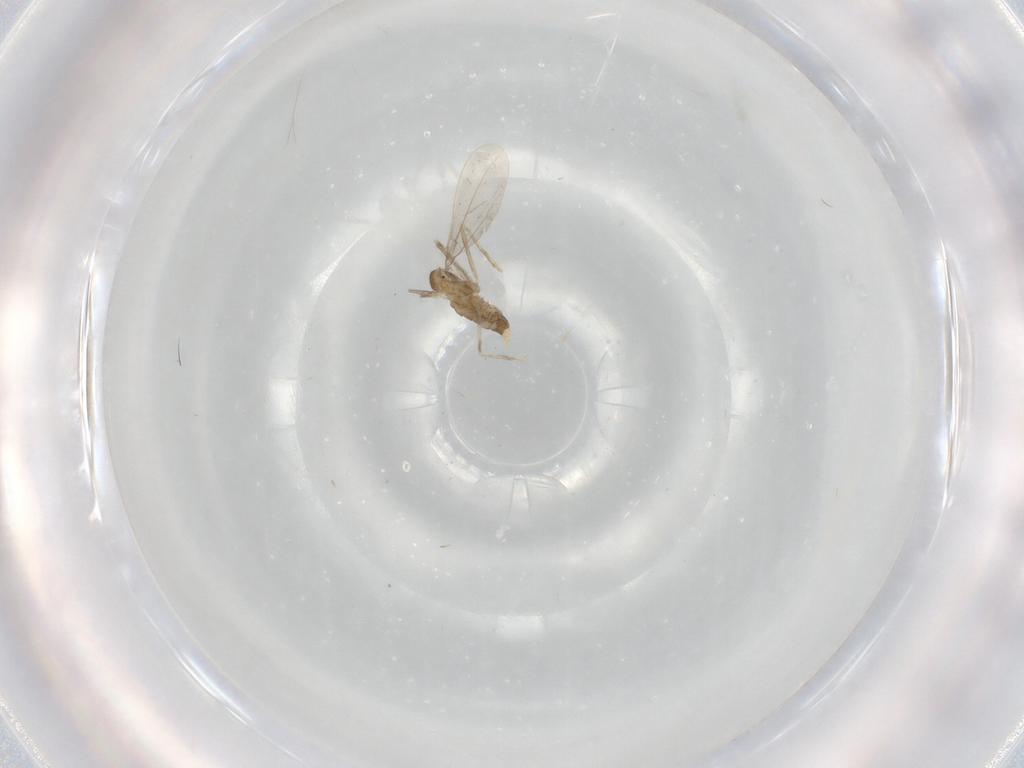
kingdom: Animalia
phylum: Arthropoda
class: Insecta
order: Diptera
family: Cecidomyiidae
